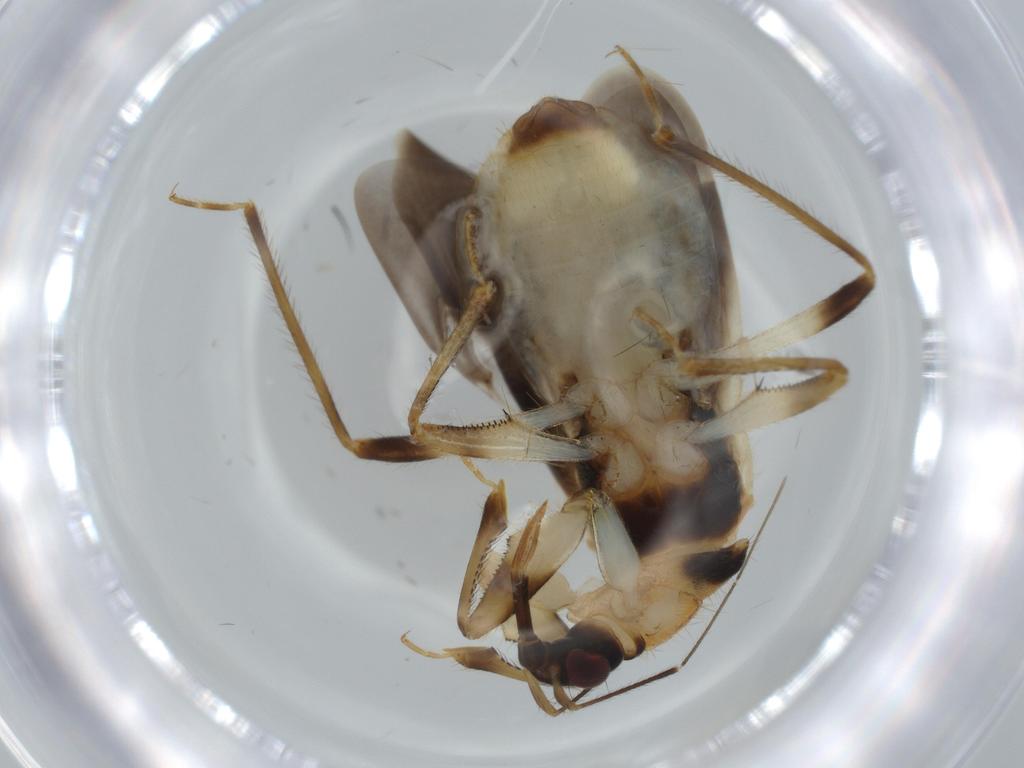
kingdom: Animalia
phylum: Arthropoda
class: Insecta
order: Hemiptera
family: Nabidae
